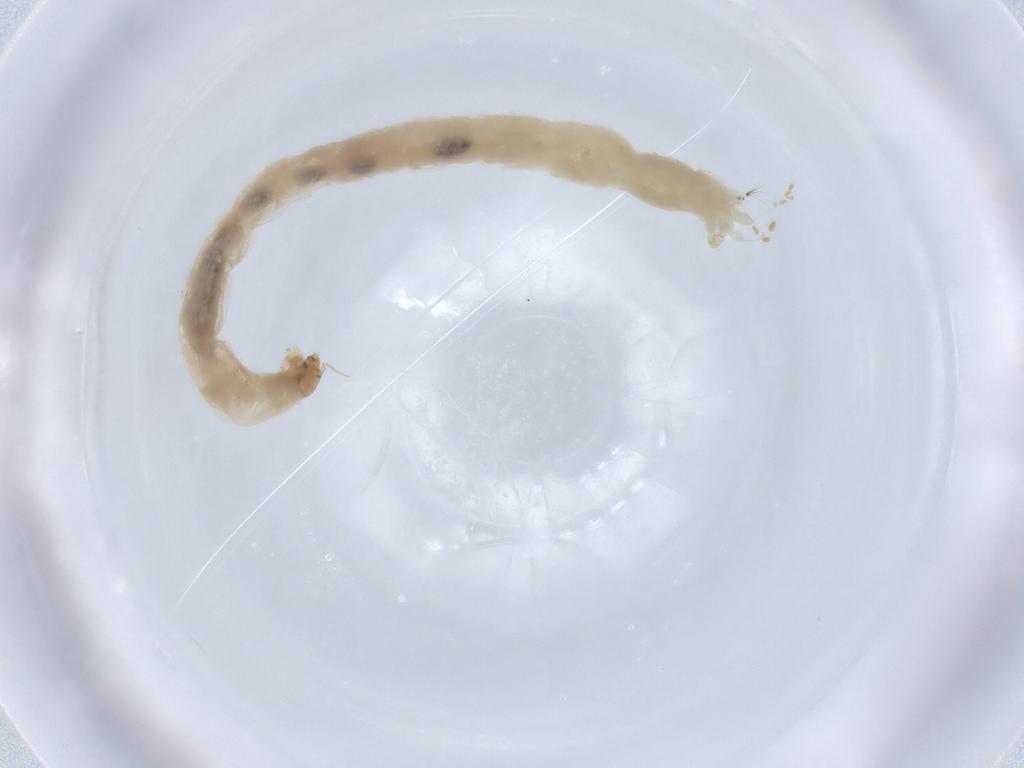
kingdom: Animalia
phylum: Arthropoda
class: Insecta
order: Diptera
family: Chironomidae
